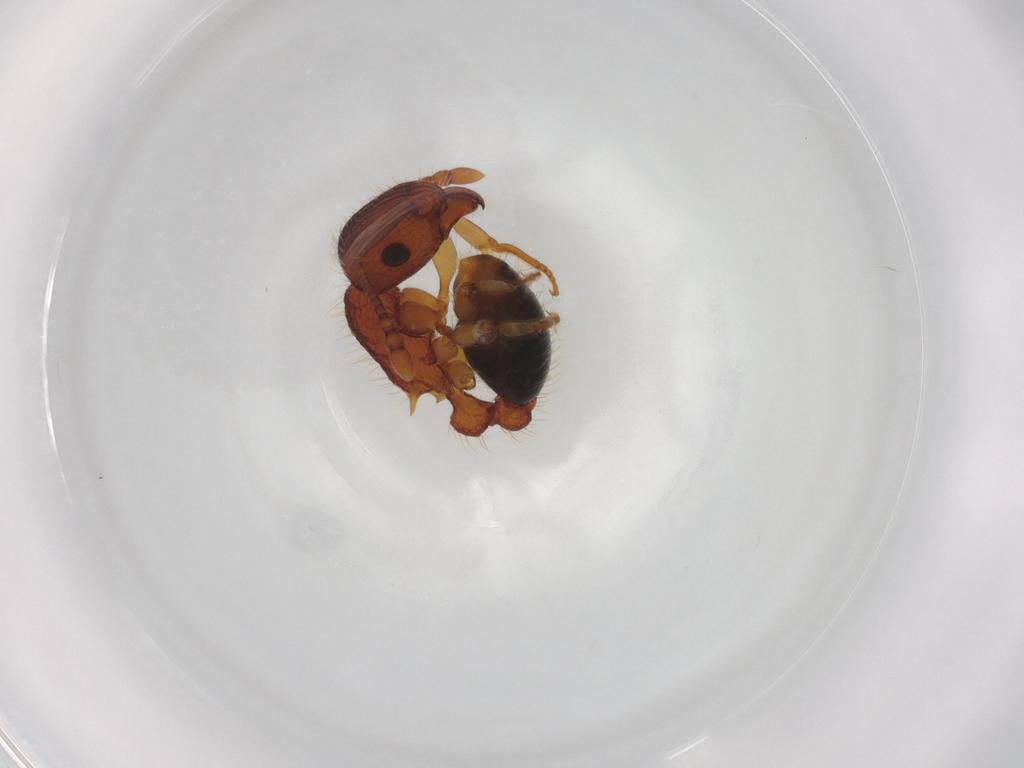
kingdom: Animalia
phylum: Arthropoda
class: Insecta
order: Hymenoptera
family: Formicidae
